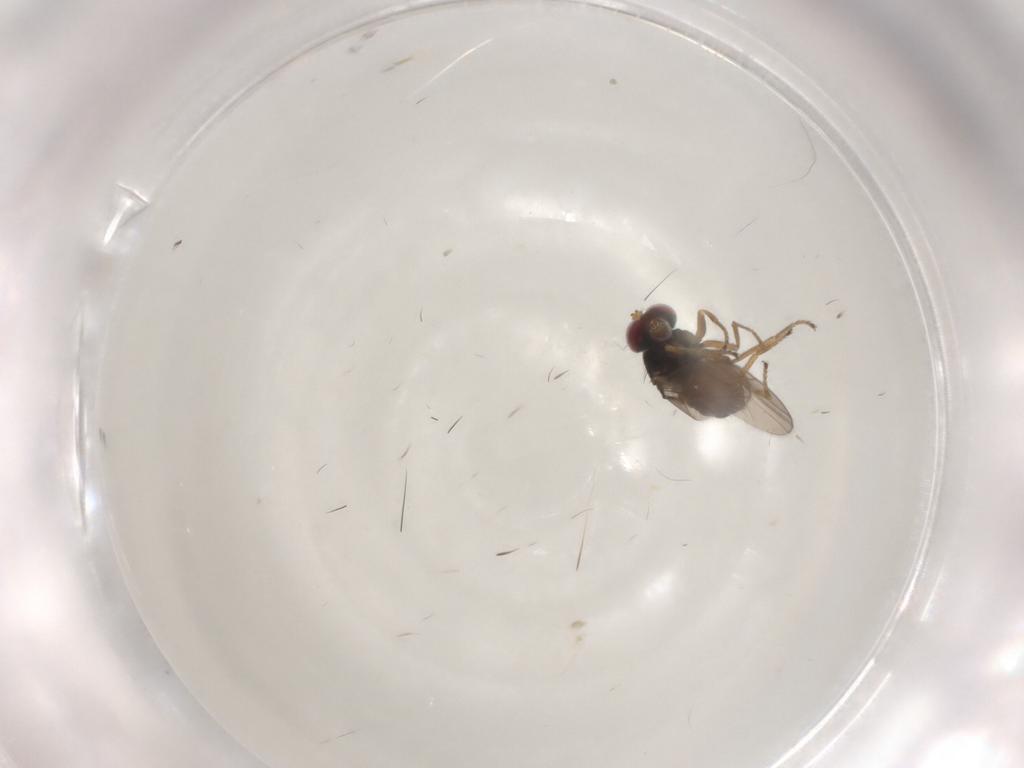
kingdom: Animalia
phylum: Arthropoda
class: Insecta
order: Diptera
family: Ephydridae
